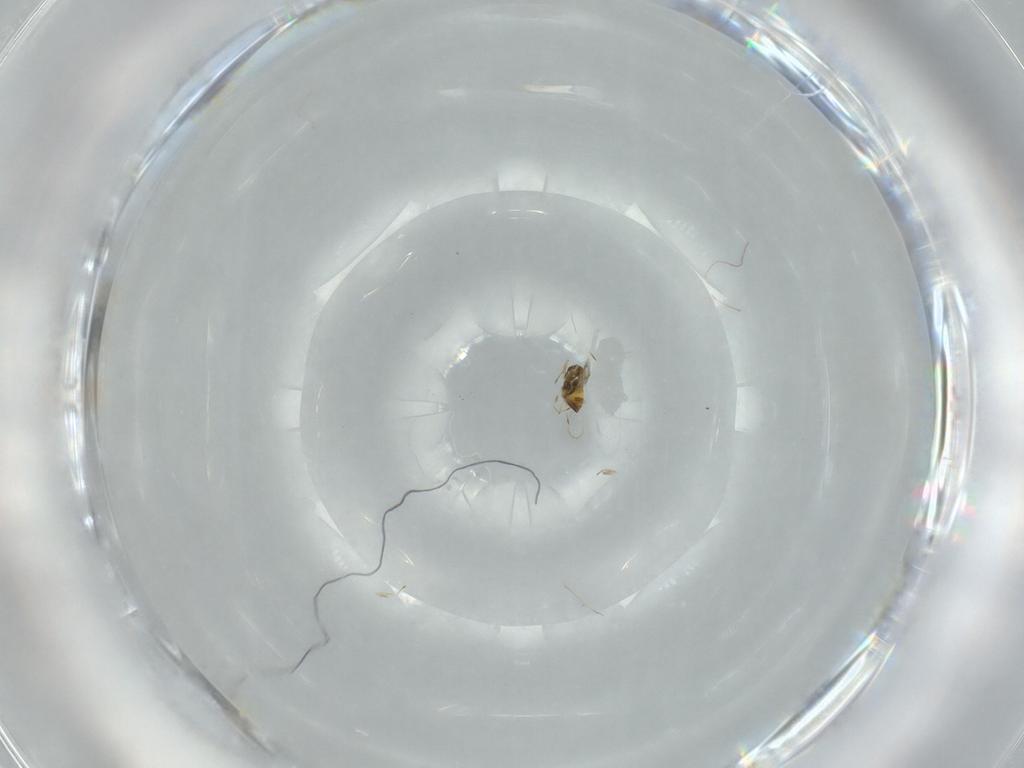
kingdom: Animalia
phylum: Arthropoda
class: Insecta
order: Hymenoptera
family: Trichogrammatidae
